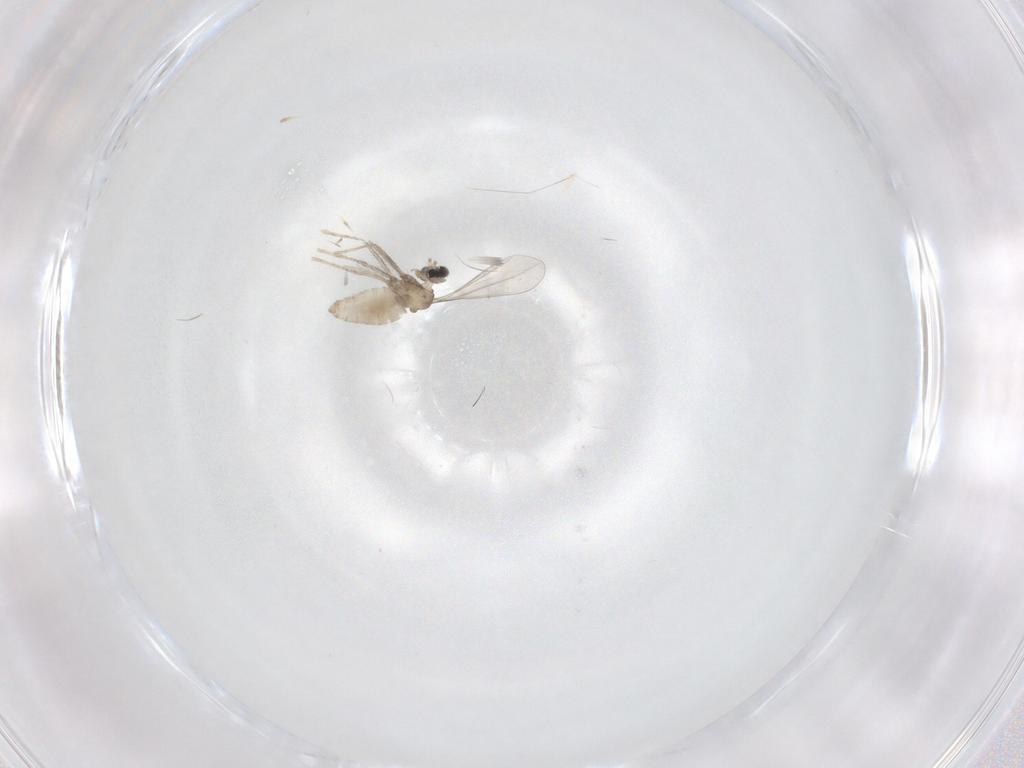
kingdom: Animalia
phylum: Arthropoda
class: Insecta
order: Diptera
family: Cecidomyiidae
